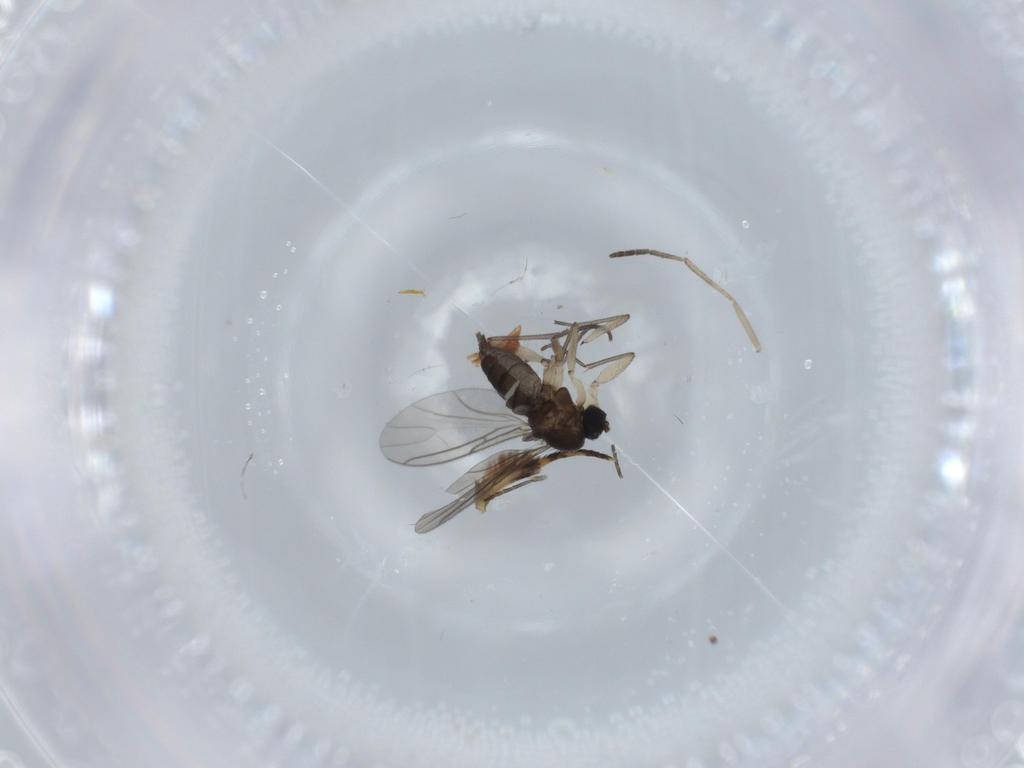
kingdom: Animalia
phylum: Arthropoda
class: Insecta
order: Diptera
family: Sciaridae
